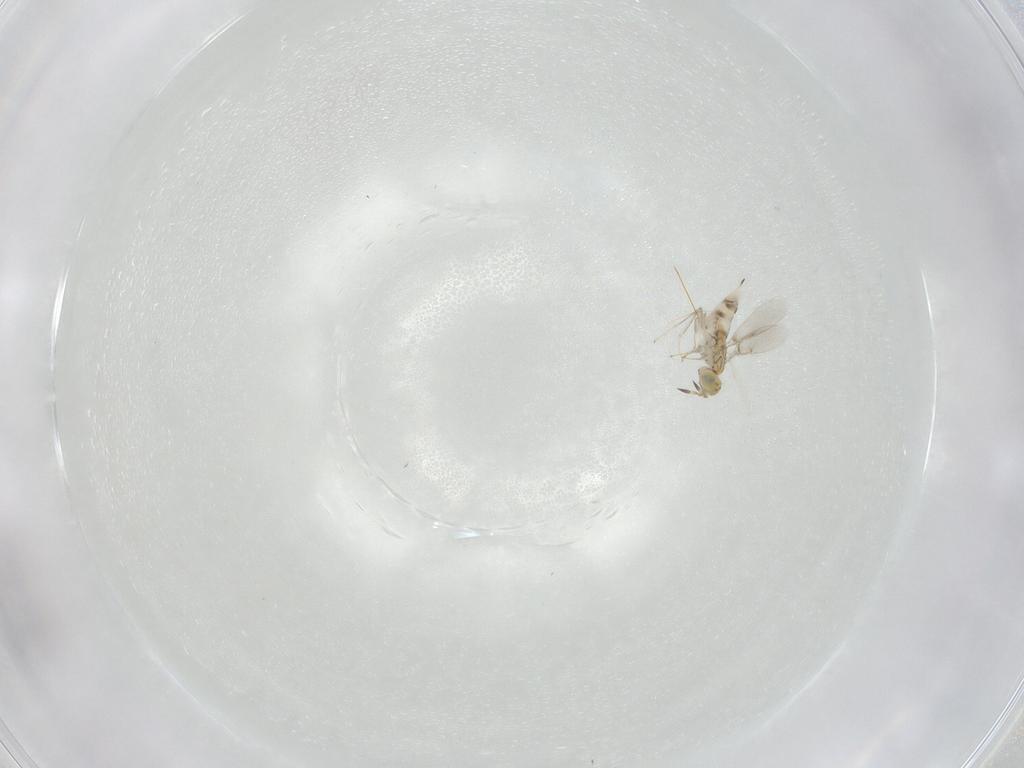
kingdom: Animalia
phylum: Arthropoda
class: Insecta
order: Hymenoptera
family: Aphelinidae
